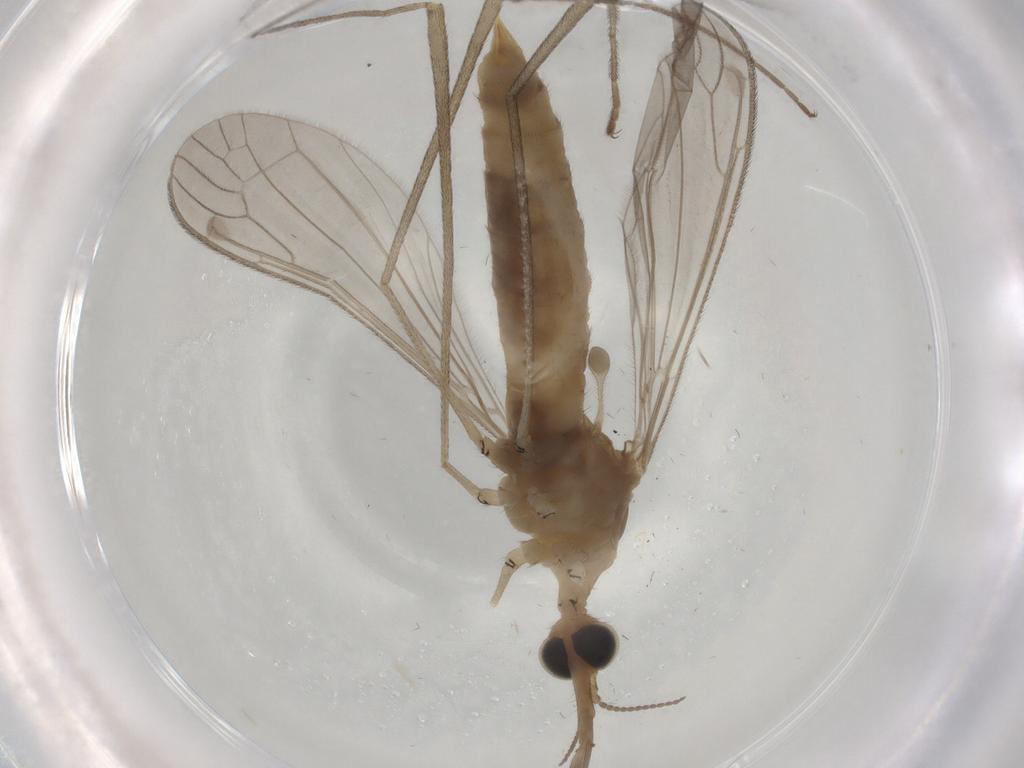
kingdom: Animalia
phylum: Arthropoda
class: Insecta
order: Diptera
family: Limoniidae
